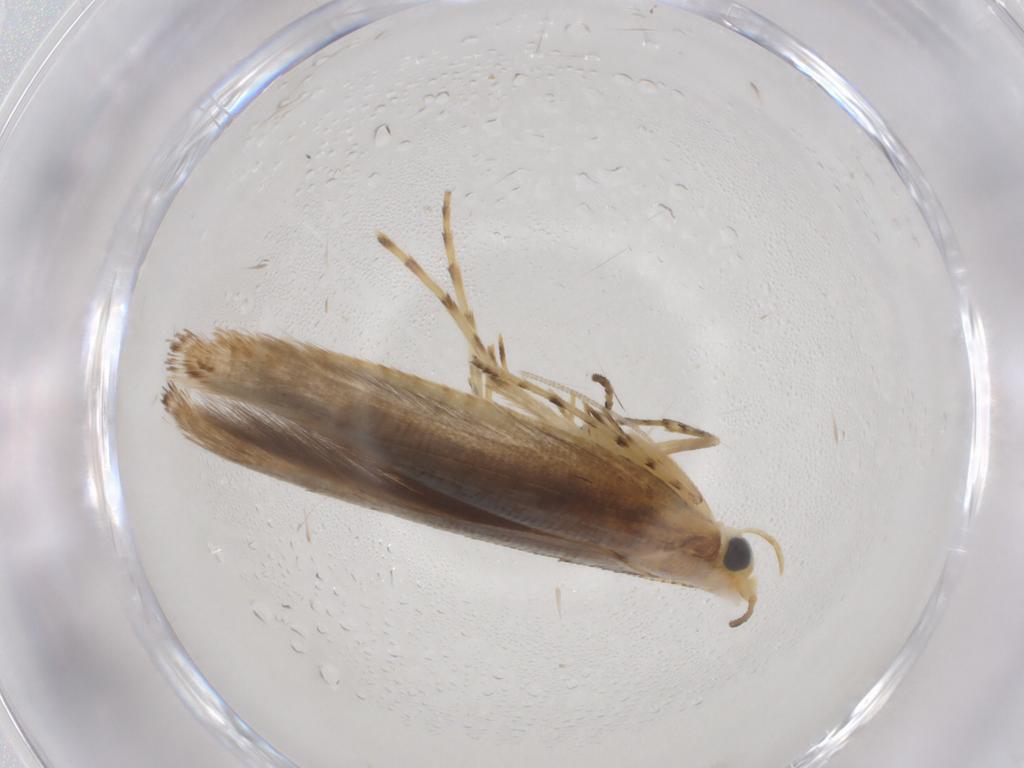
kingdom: Animalia
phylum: Arthropoda
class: Insecta
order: Lepidoptera
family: Argyresthiidae
